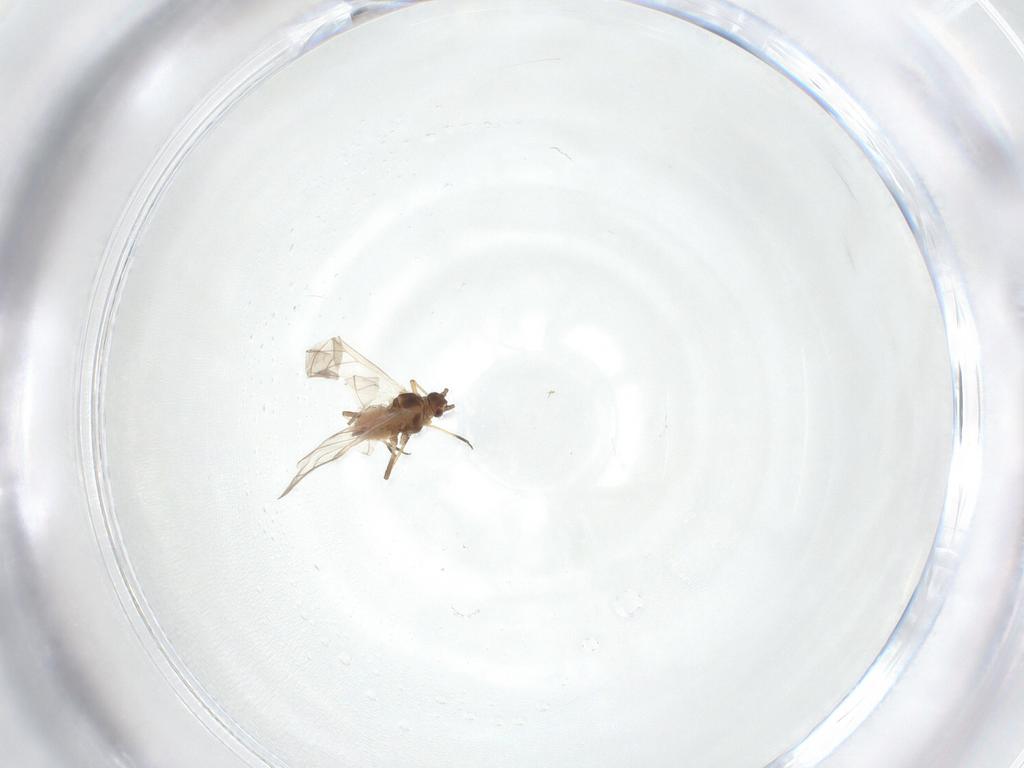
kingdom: Animalia
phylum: Arthropoda
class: Insecta
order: Hemiptera
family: Aphididae
